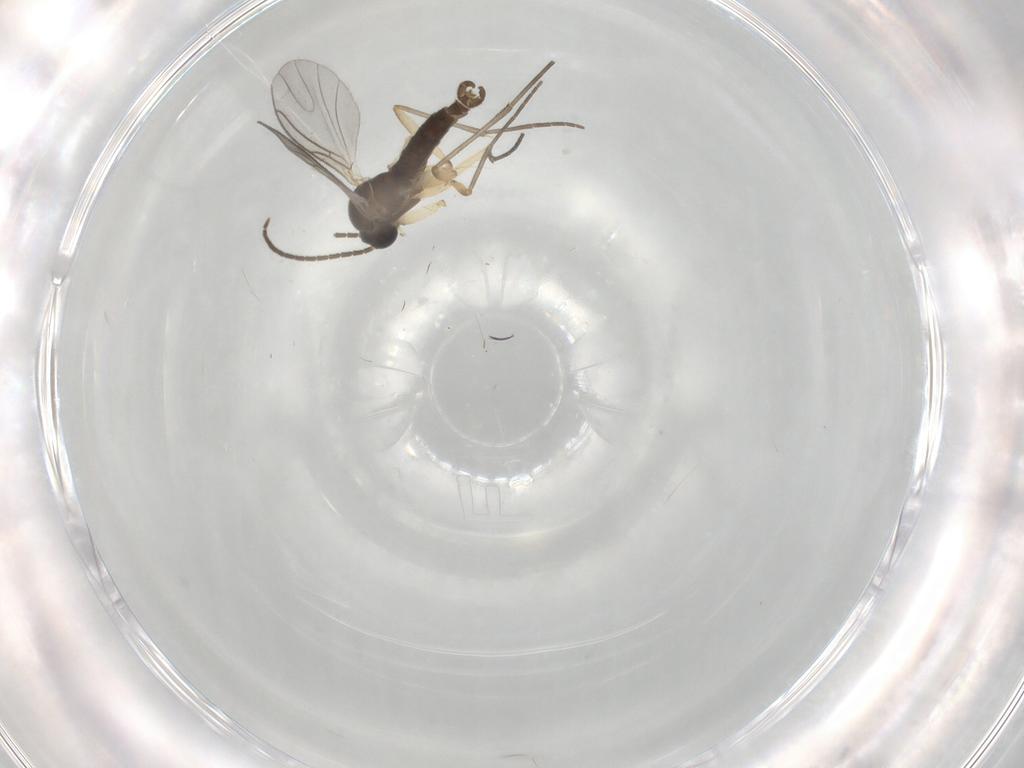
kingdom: Animalia
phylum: Arthropoda
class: Insecta
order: Diptera
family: Sciaridae
